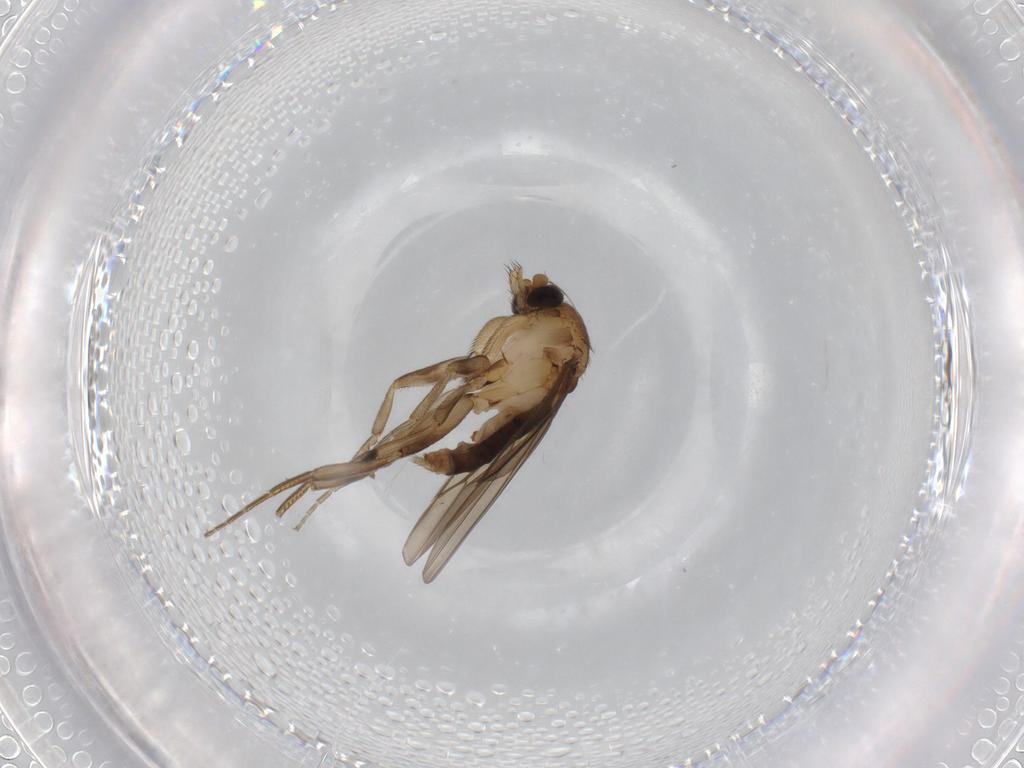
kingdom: Animalia
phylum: Arthropoda
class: Insecta
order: Diptera
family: Phoridae
